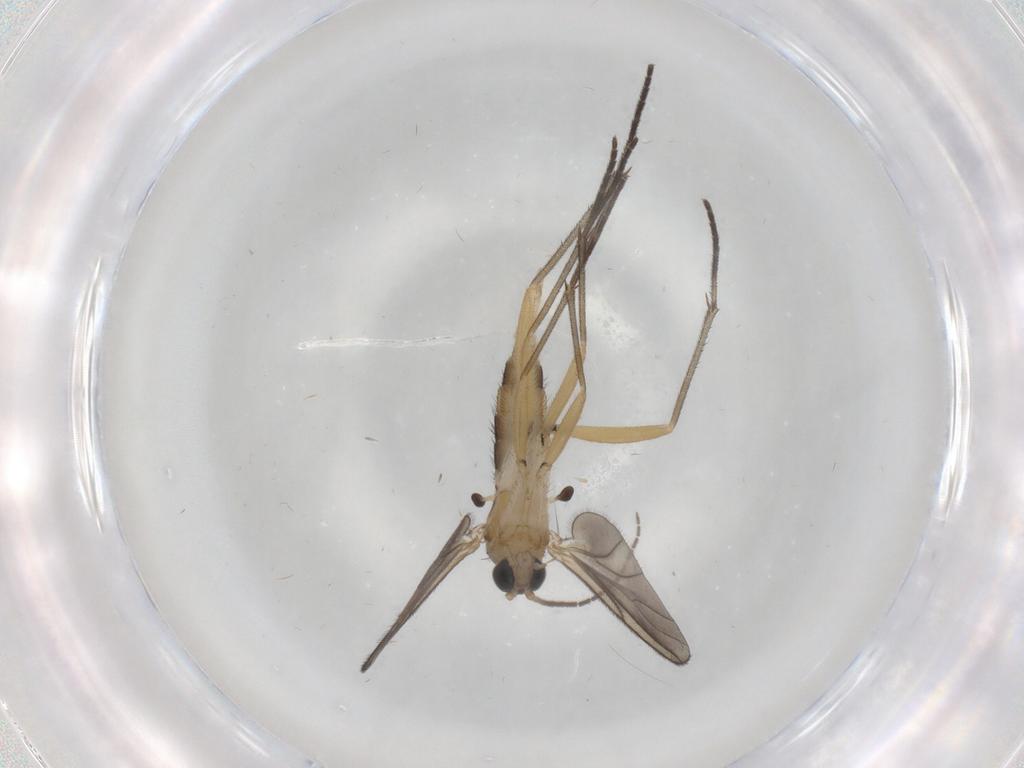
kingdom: Animalia
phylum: Arthropoda
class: Insecta
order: Diptera
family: Sciaridae
